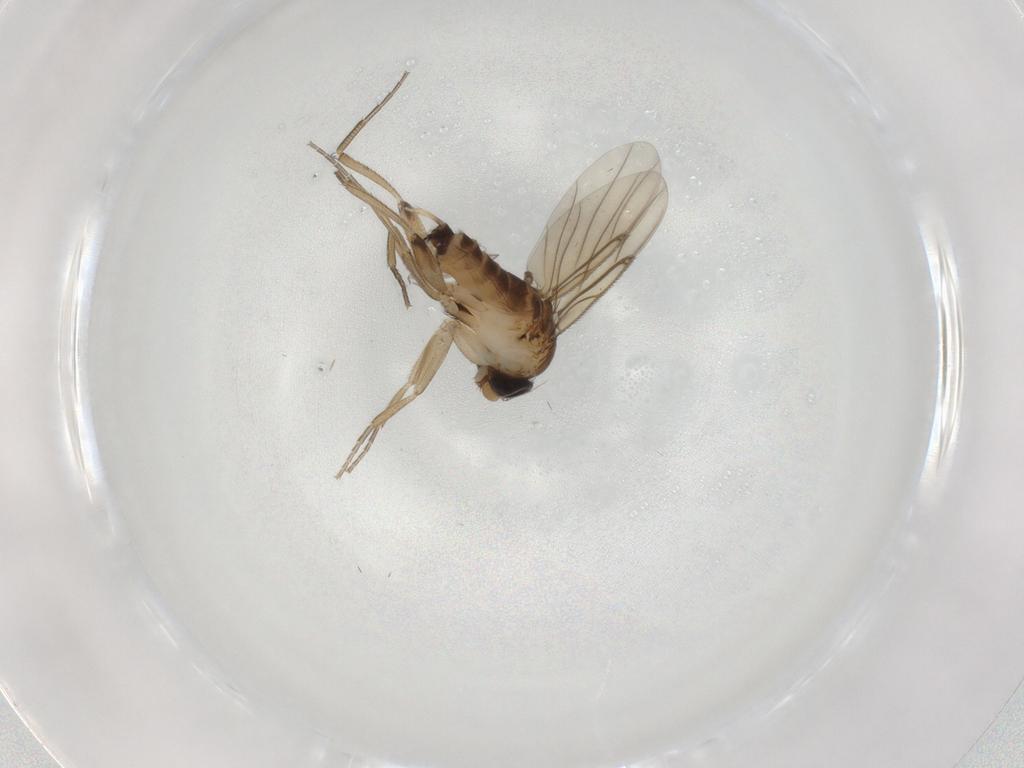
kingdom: Animalia
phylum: Arthropoda
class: Insecta
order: Diptera
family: Phoridae
